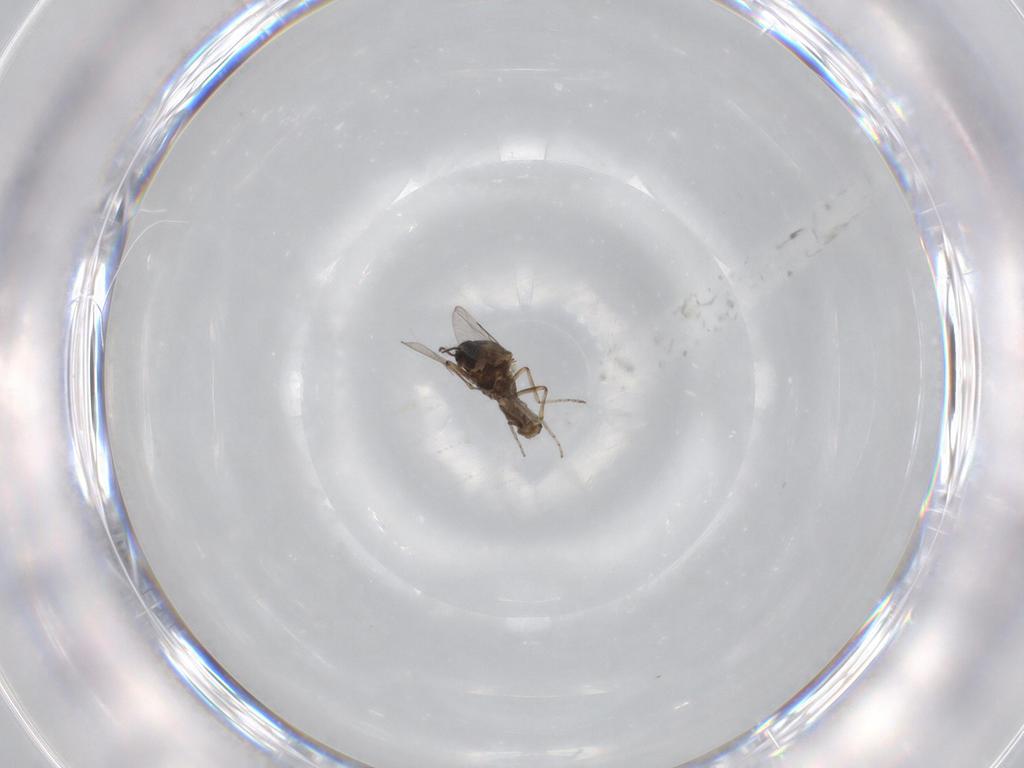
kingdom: Animalia
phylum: Arthropoda
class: Insecta
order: Diptera
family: Ceratopogonidae
